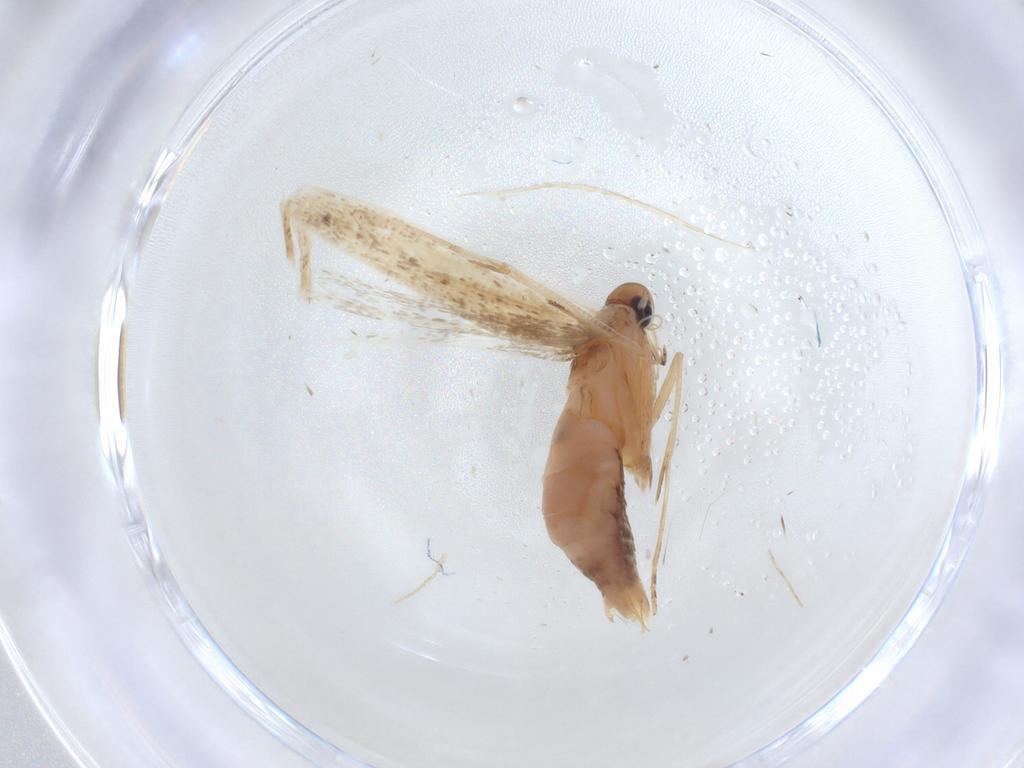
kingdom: Animalia
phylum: Arthropoda
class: Insecta
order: Lepidoptera
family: Crambidae
